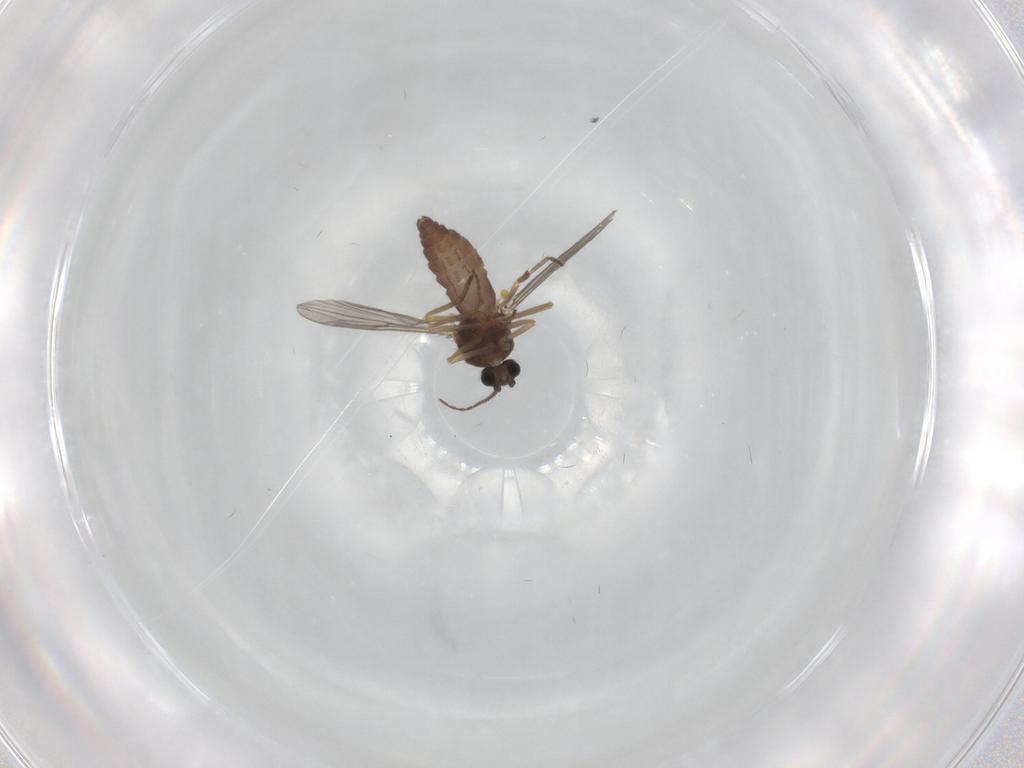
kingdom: Animalia
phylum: Arthropoda
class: Insecta
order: Diptera
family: Ceratopogonidae
